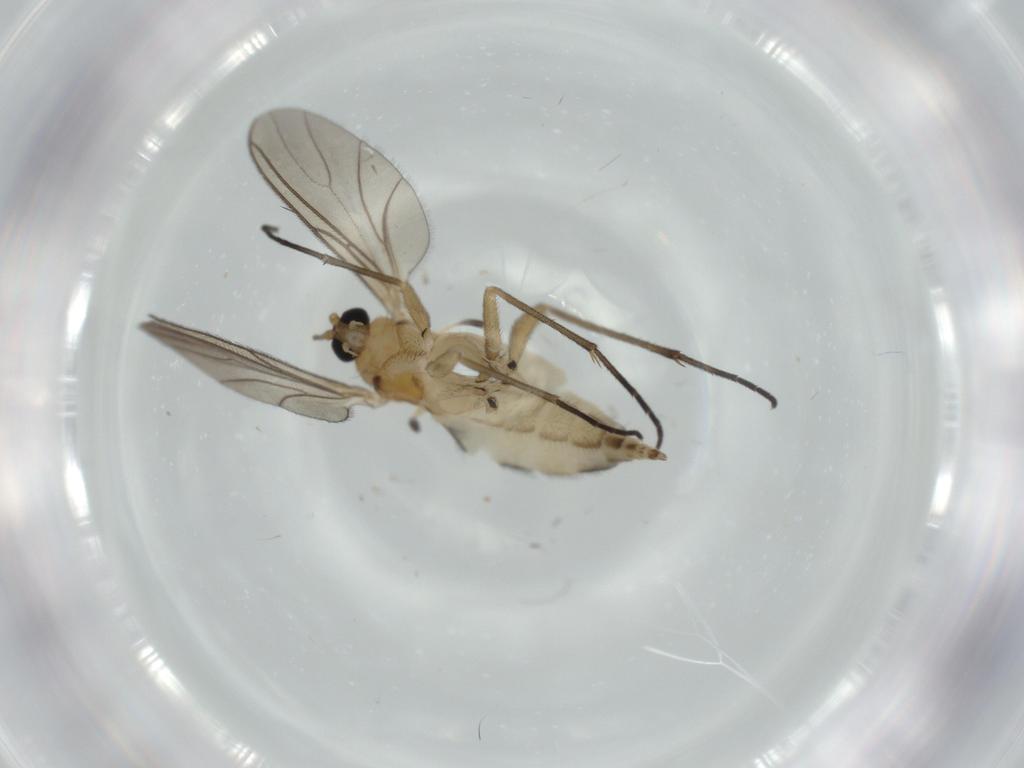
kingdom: Animalia
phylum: Arthropoda
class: Insecta
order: Diptera
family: Sciaridae
